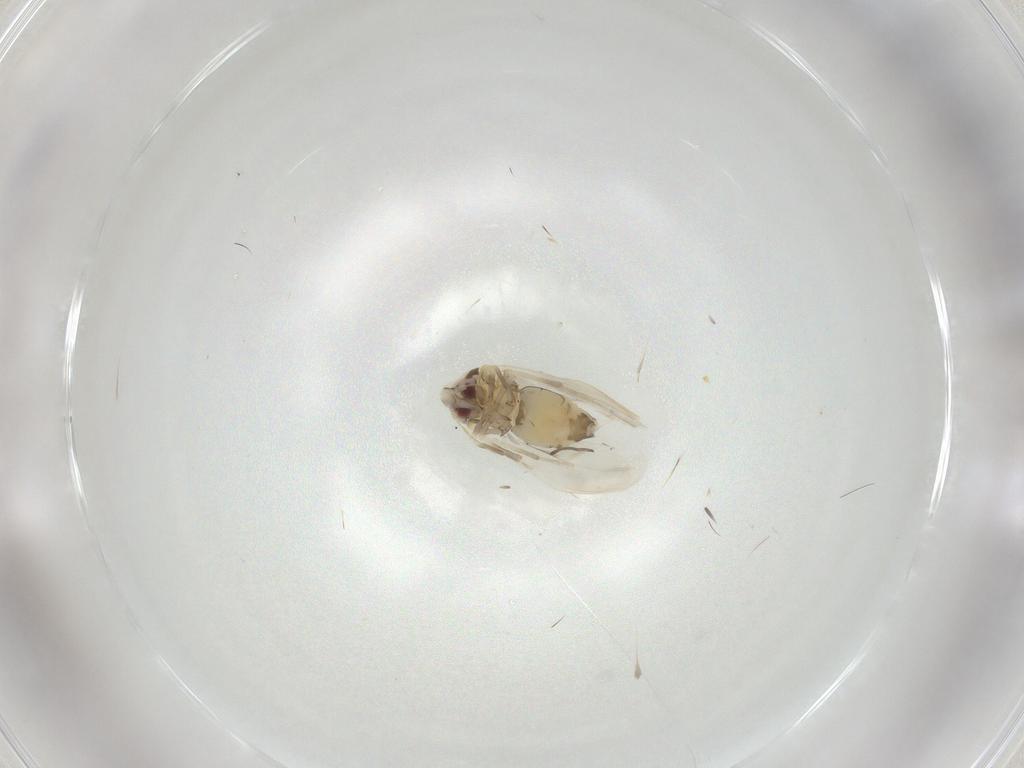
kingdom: Animalia
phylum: Arthropoda
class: Insecta
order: Hemiptera
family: Aleyrodidae
